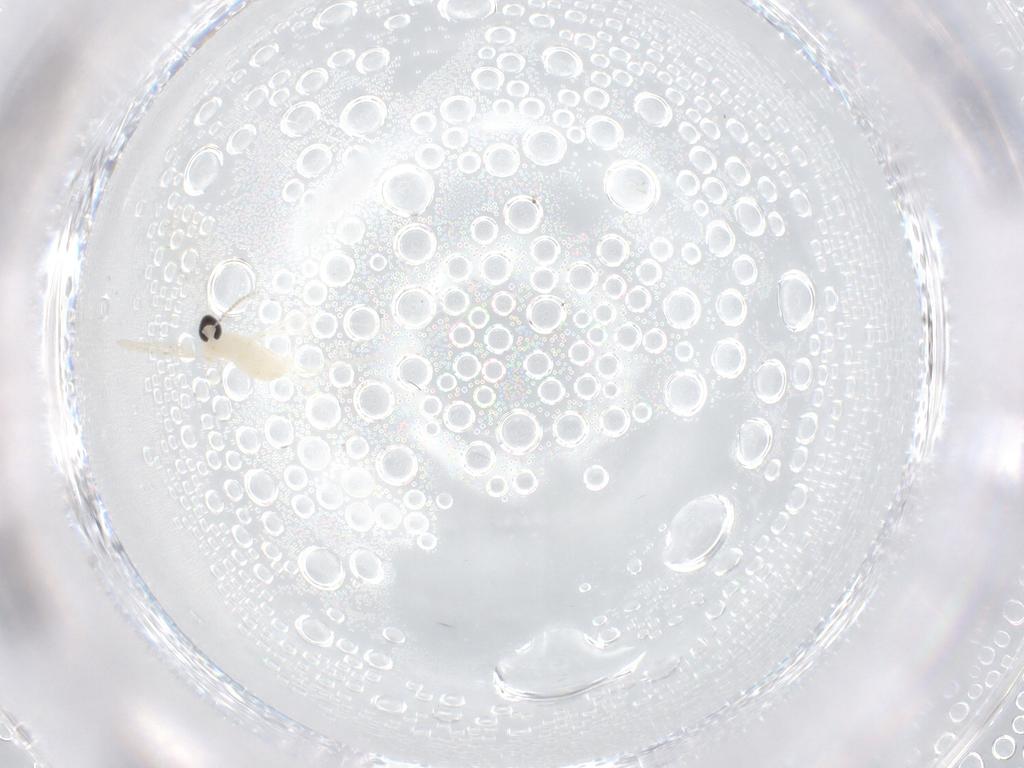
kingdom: Animalia
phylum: Arthropoda
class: Insecta
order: Diptera
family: Cecidomyiidae
